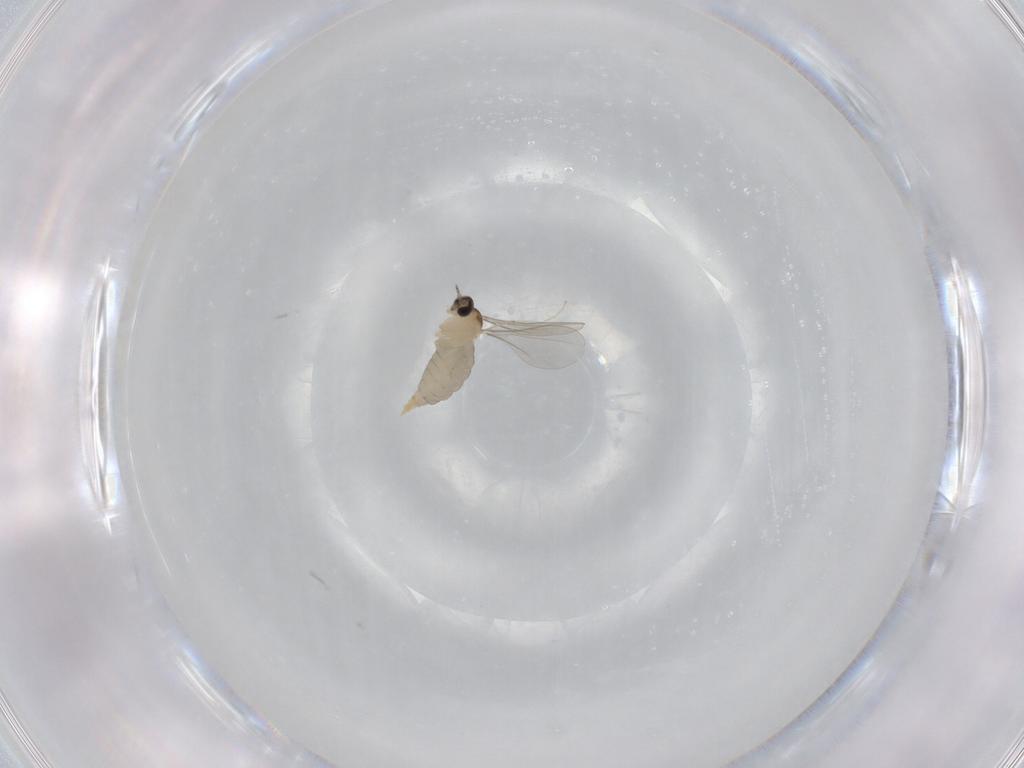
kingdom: Animalia
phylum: Arthropoda
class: Insecta
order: Diptera
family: Chironomidae
